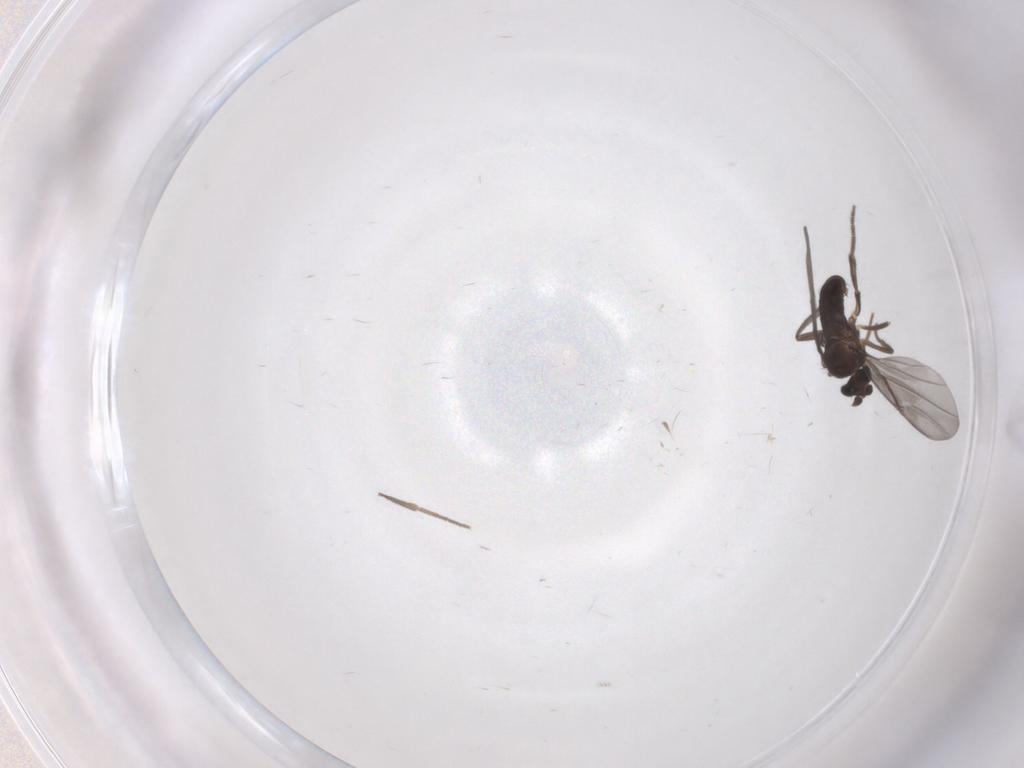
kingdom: Animalia
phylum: Arthropoda
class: Insecta
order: Diptera
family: Phoridae
